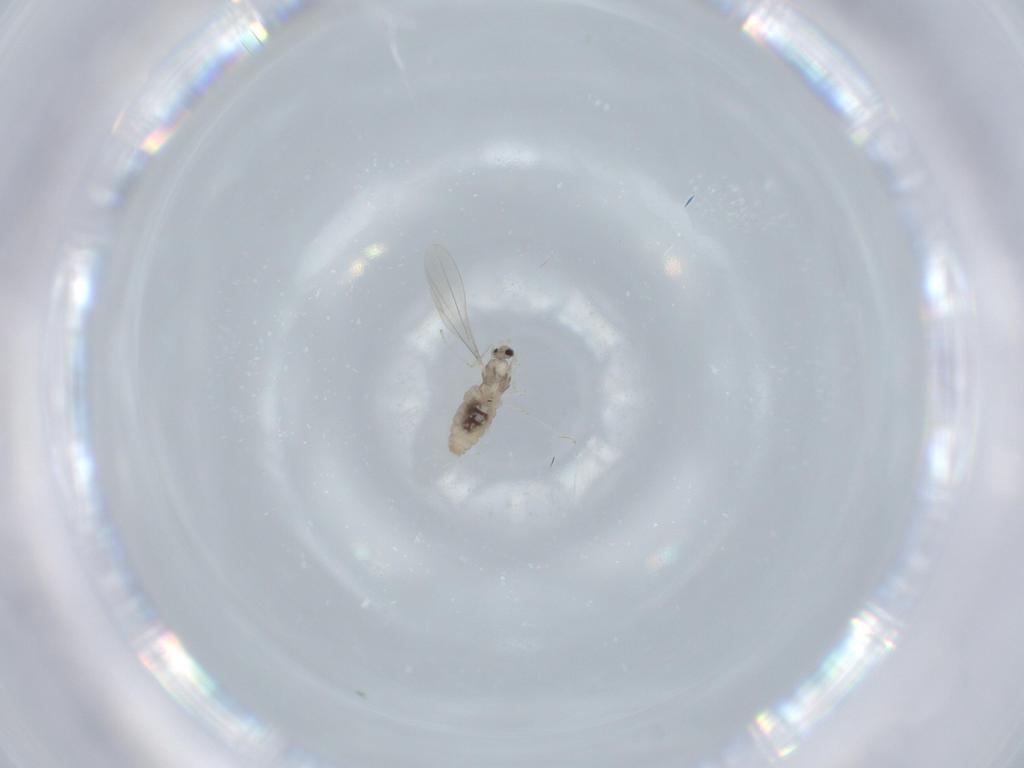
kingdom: Animalia
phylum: Arthropoda
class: Insecta
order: Diptera
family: Cecidomyiidae
